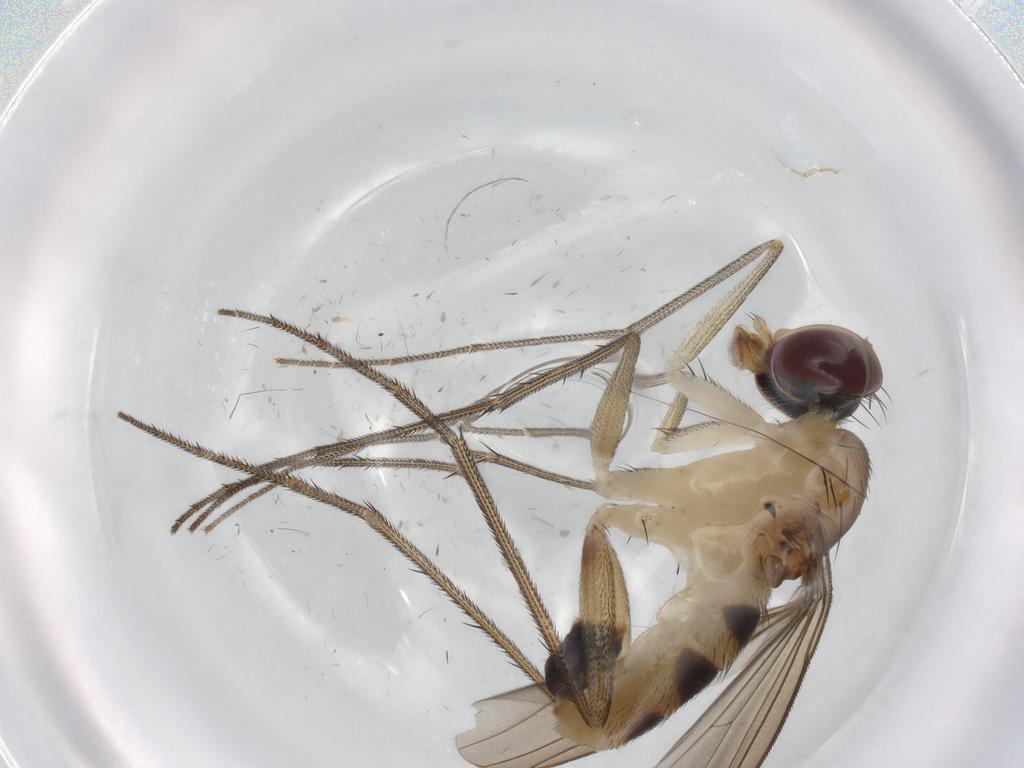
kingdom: Animalia
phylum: Arthropoda
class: Insecta
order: Diptera
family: Dolichopodidae
